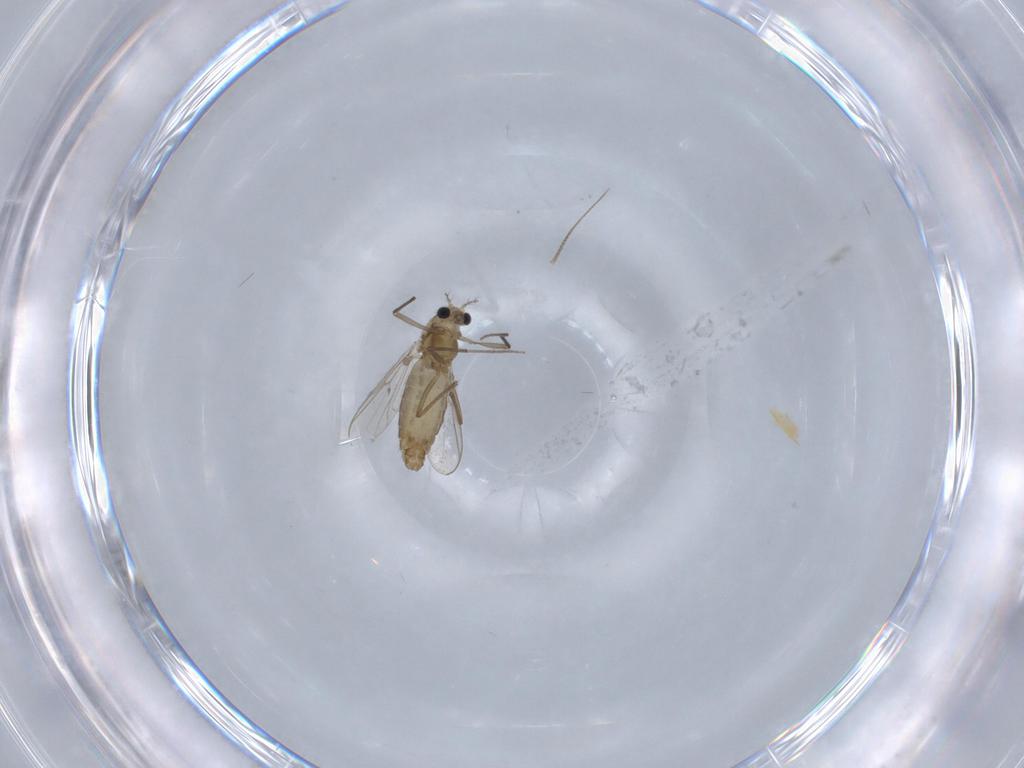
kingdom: Animalia
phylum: Arthropoda
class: Insecta
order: Diptera
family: Chironomidae
